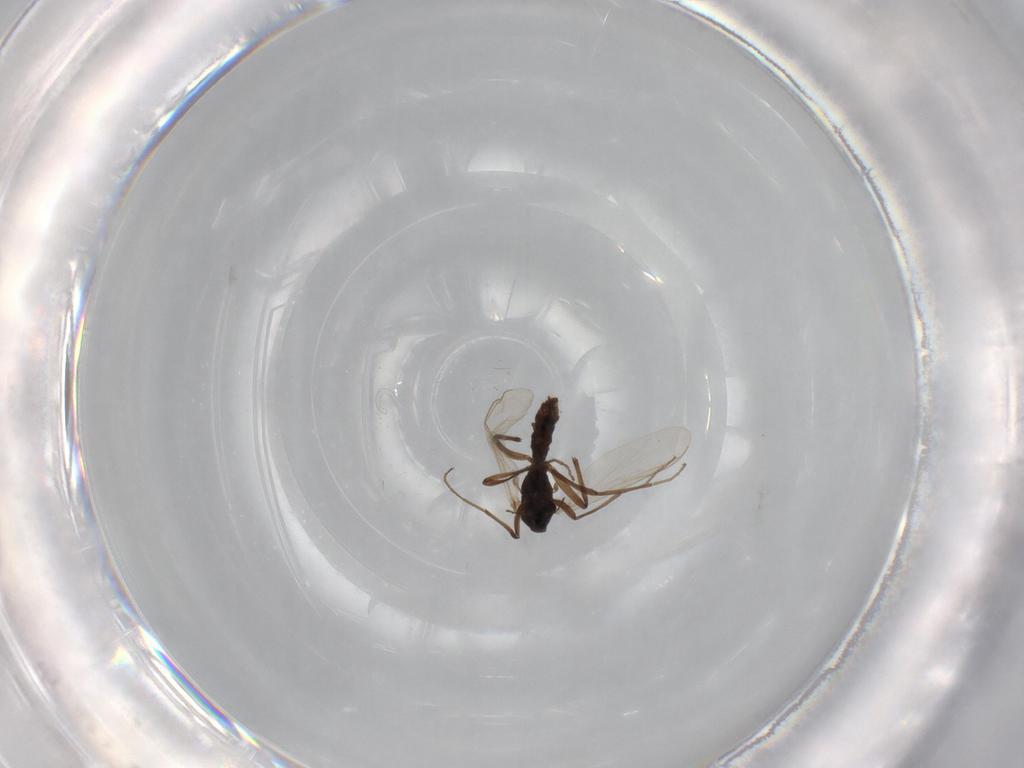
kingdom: Animalia
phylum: Arthropoda
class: Insecta
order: Diptera
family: Chironomidae
